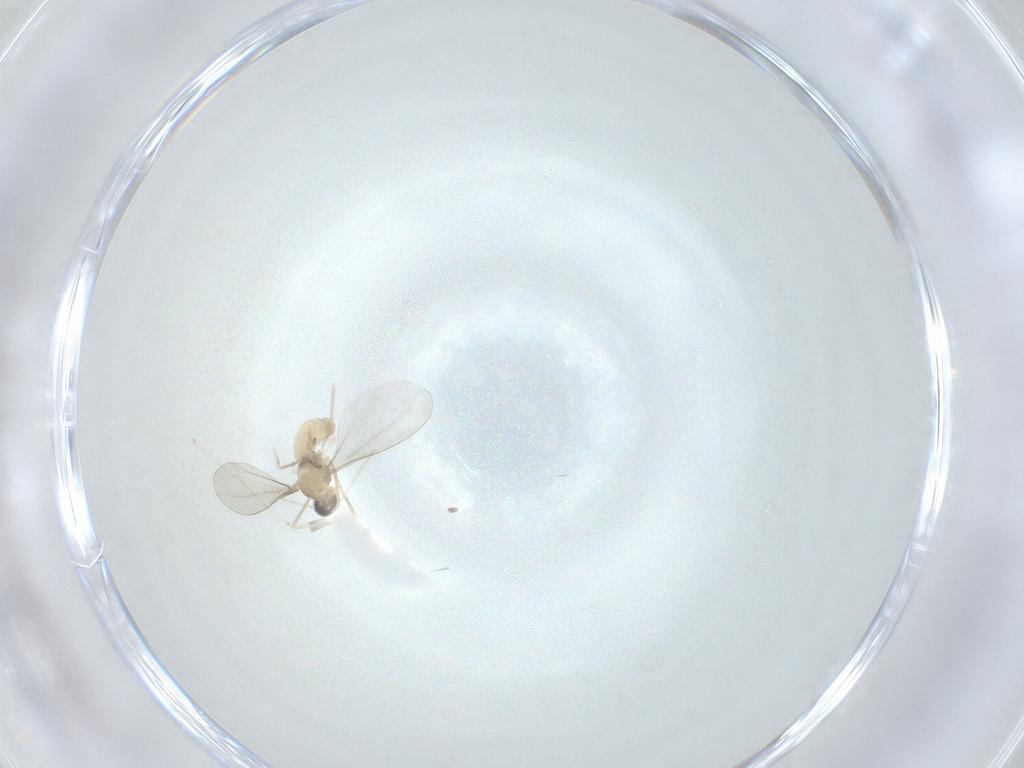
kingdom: Animalia
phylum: Arthropoda
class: Insecta
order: Diptera
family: Cecidomyiidae
